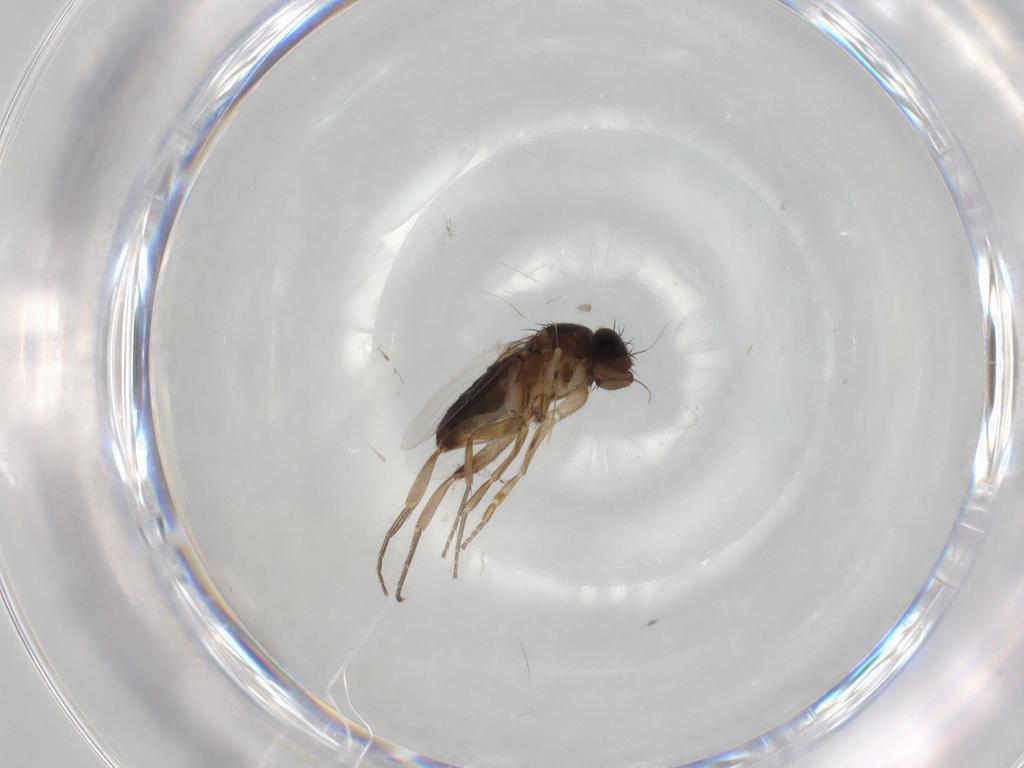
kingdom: Animalia
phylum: Arthropoda
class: Insecta
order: Diptera
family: Phoridae
